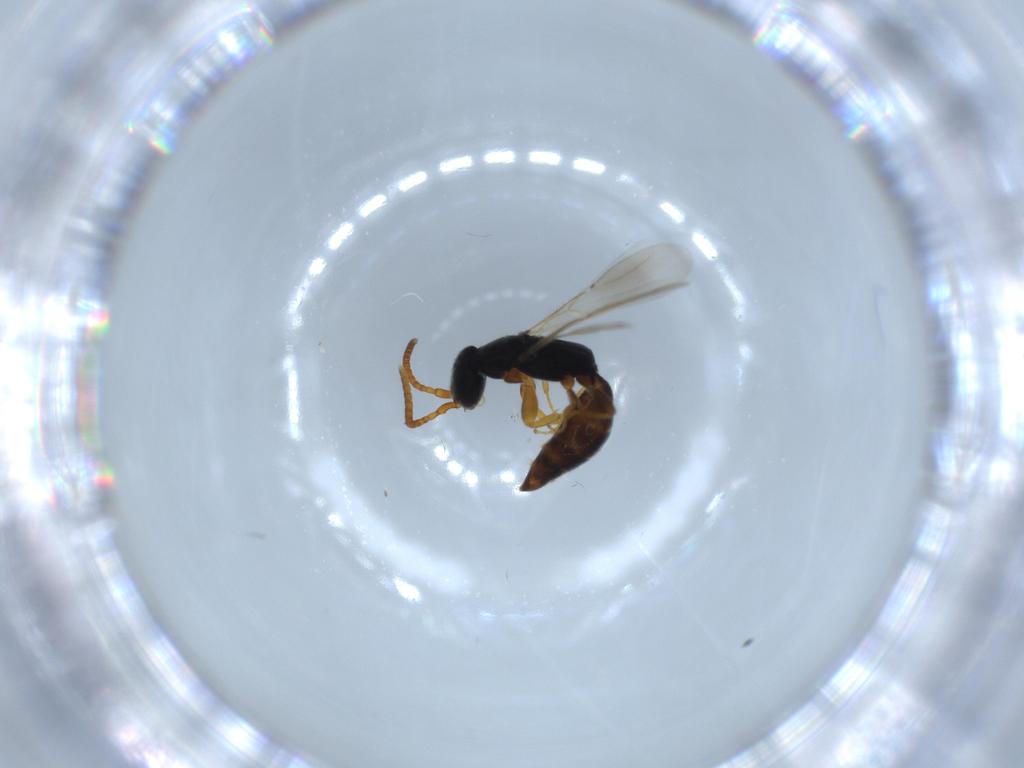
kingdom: Animalia
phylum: Arthropoda
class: Insecta
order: Hymenoptera
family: Bethylidae
